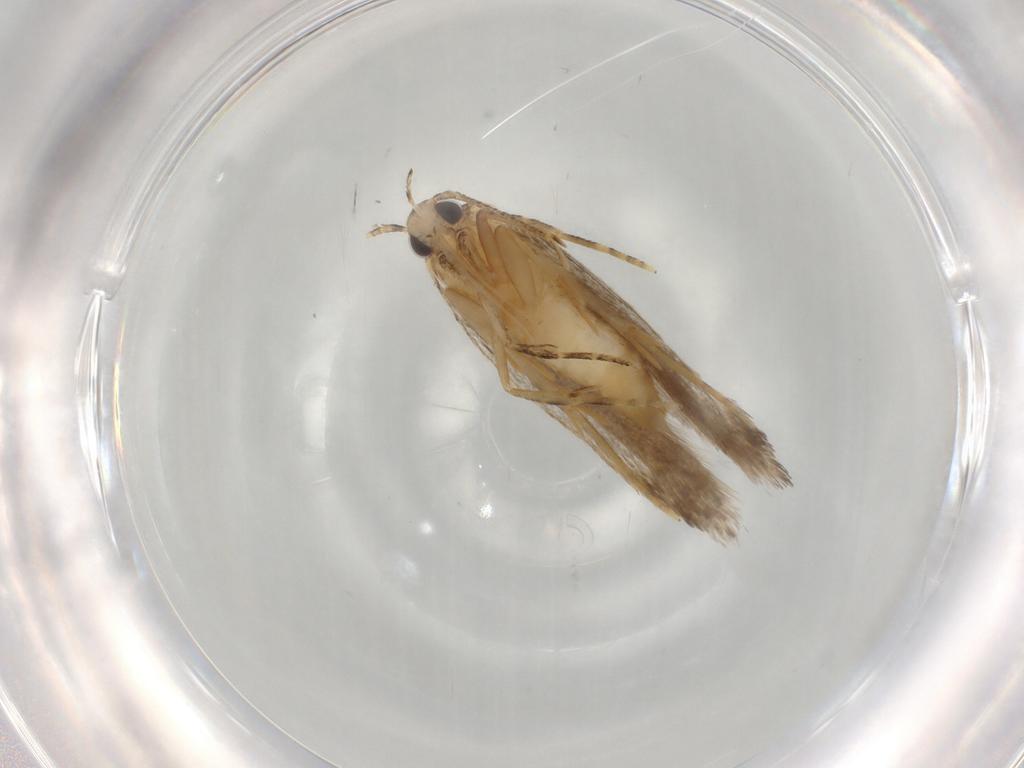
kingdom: Animalia
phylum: Arthropoda
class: Insecta
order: Lepidoptera
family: Autostichidae
